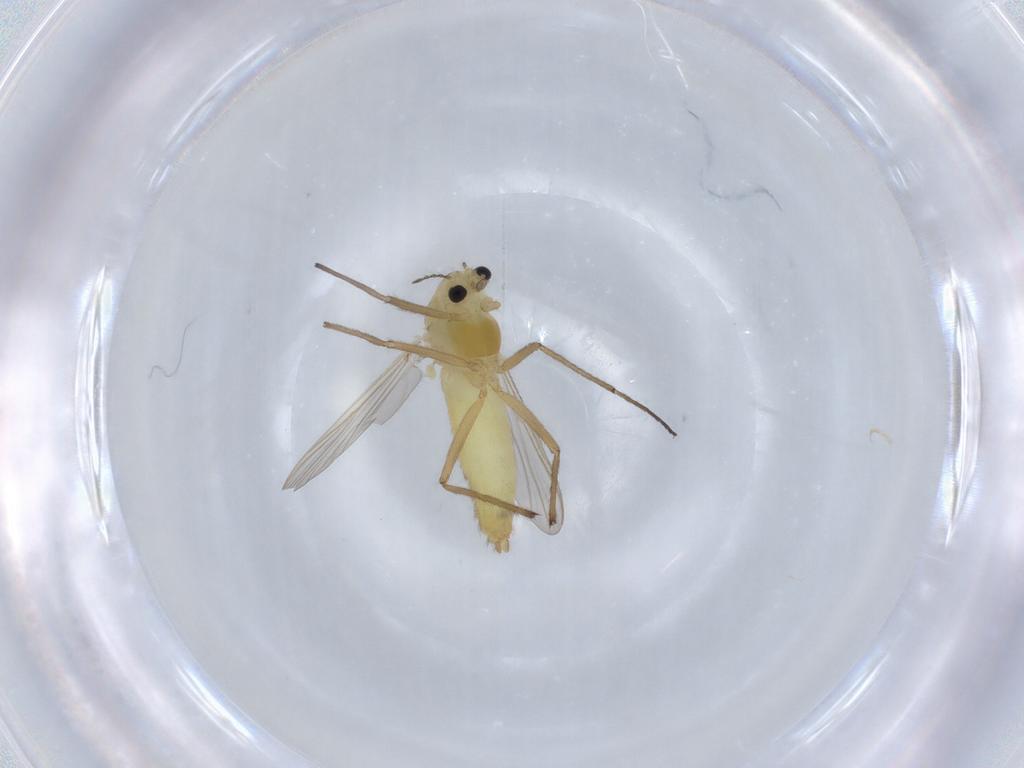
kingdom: Animalia
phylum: Arthropoda
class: Insecta
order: Diptera
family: Chironomidae
